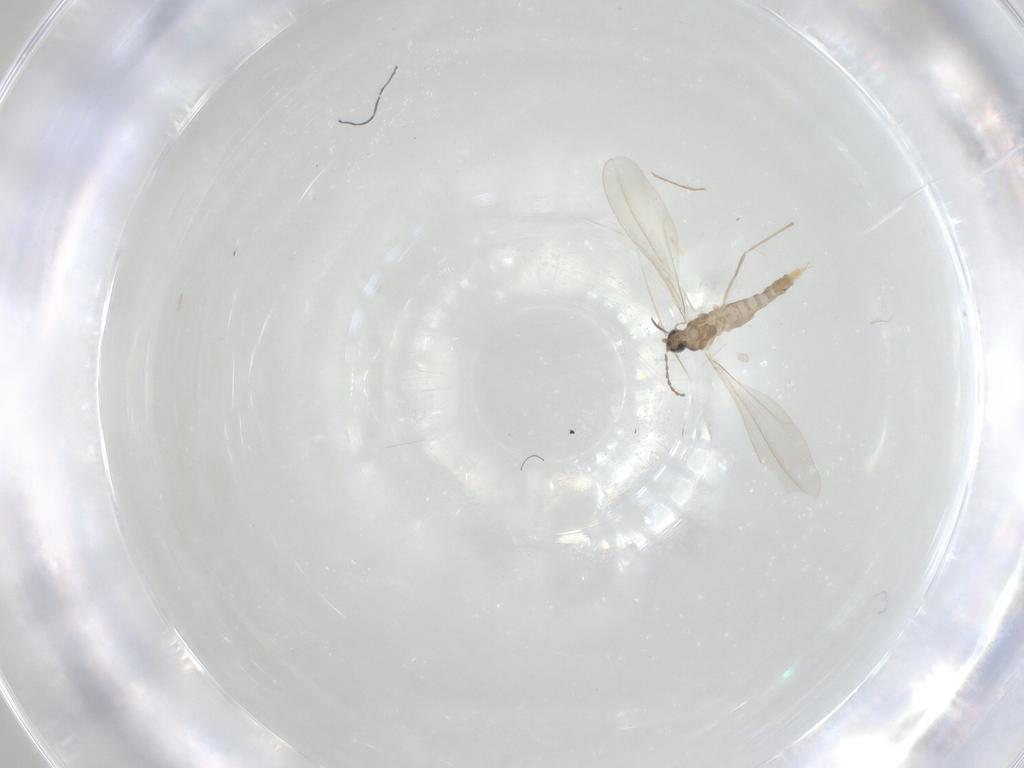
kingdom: Animalia
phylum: Arthropoda
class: Insecta
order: Diptera
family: Cecidomyiidae
